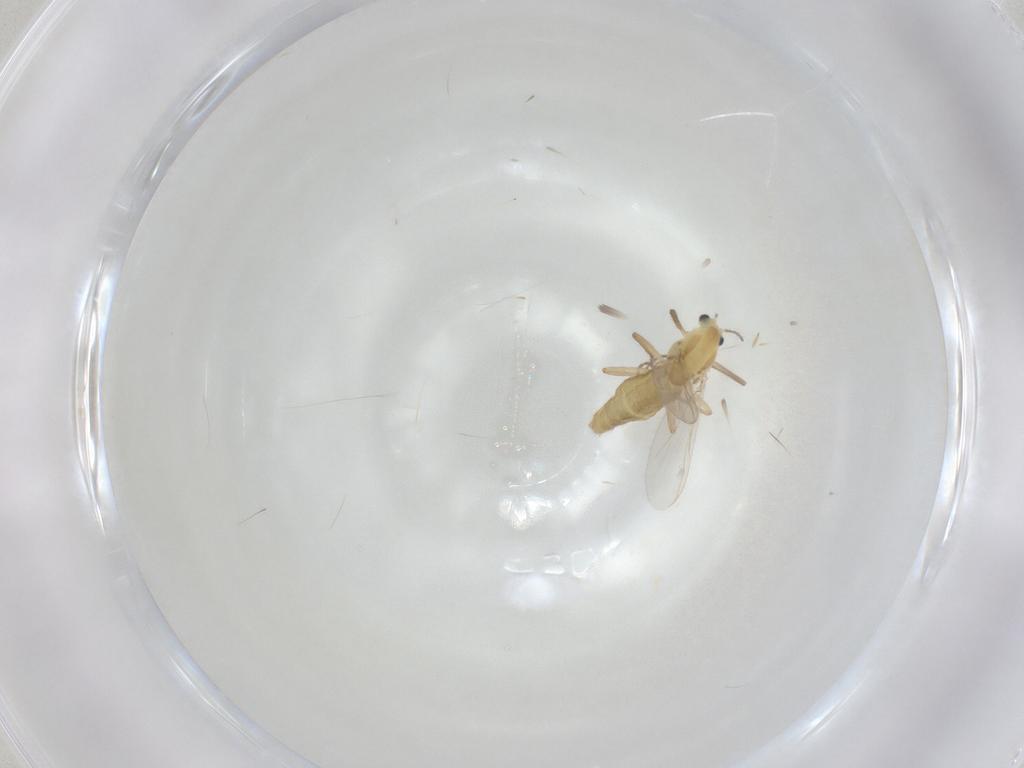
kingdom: Animalia
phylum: Arthropoda
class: Insecta
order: Diptera
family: Chironomidae
